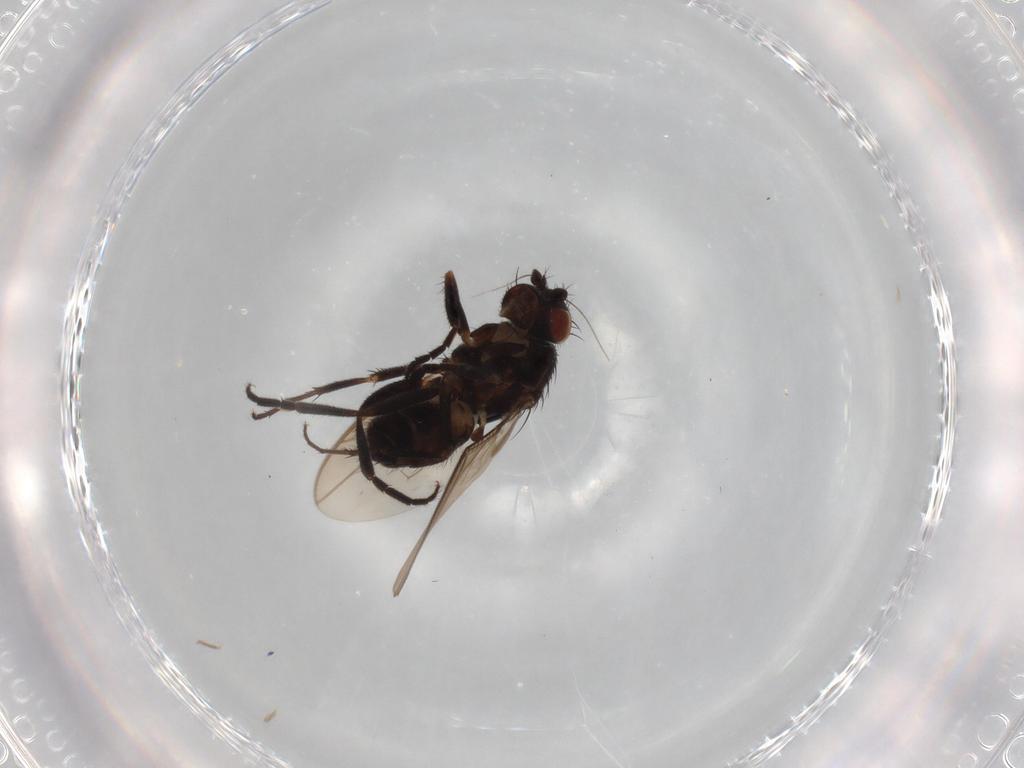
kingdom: Animalia
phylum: Arthropoda
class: Insecta
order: Diptera
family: Sphaeroceridae
